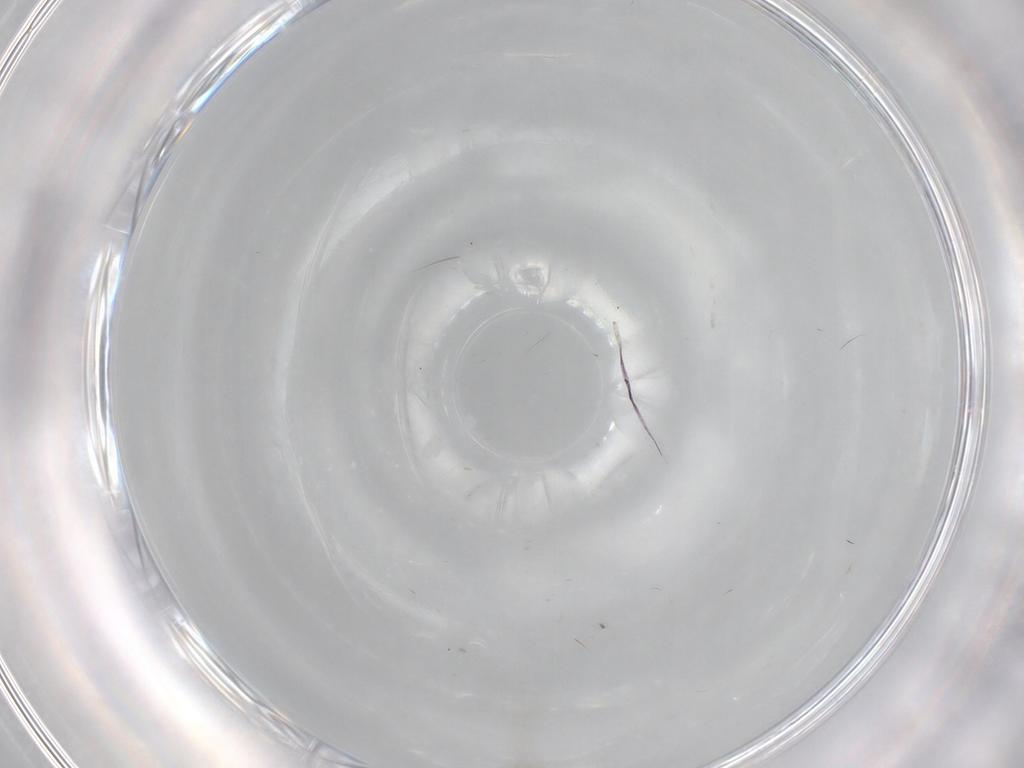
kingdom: Animalia
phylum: Arthropoda
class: Insecta
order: Diptera
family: Cecidomyiidae
